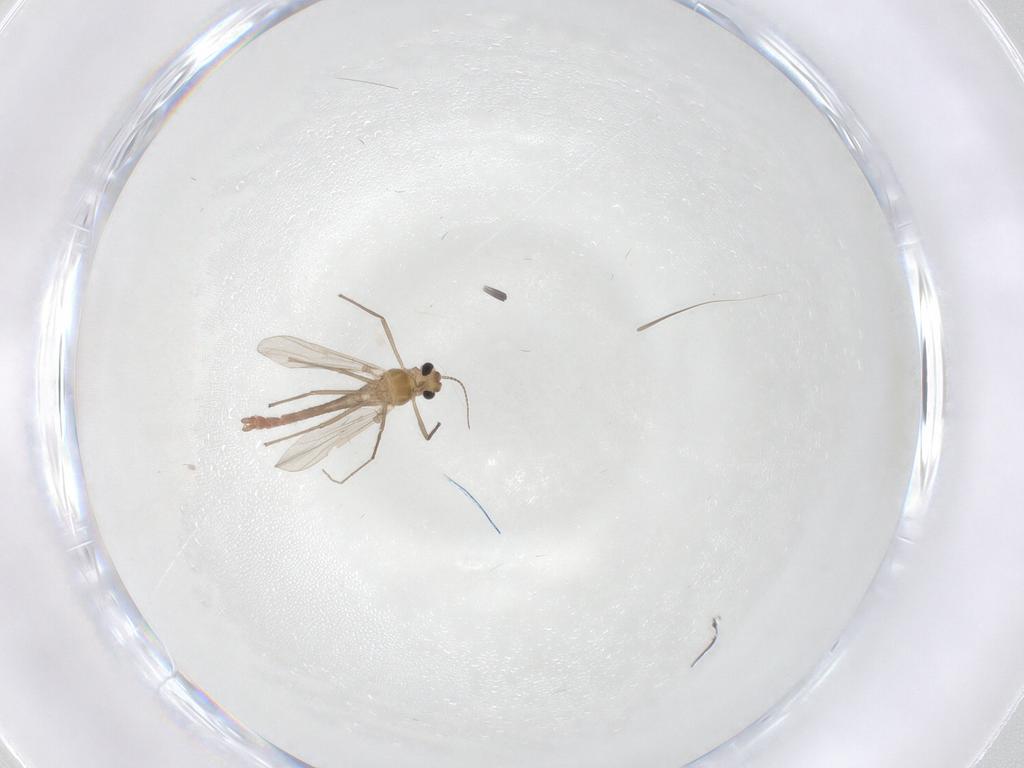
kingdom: Animalia
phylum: Arthropoda
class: Insecta
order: Diptera
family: Chironomidae
